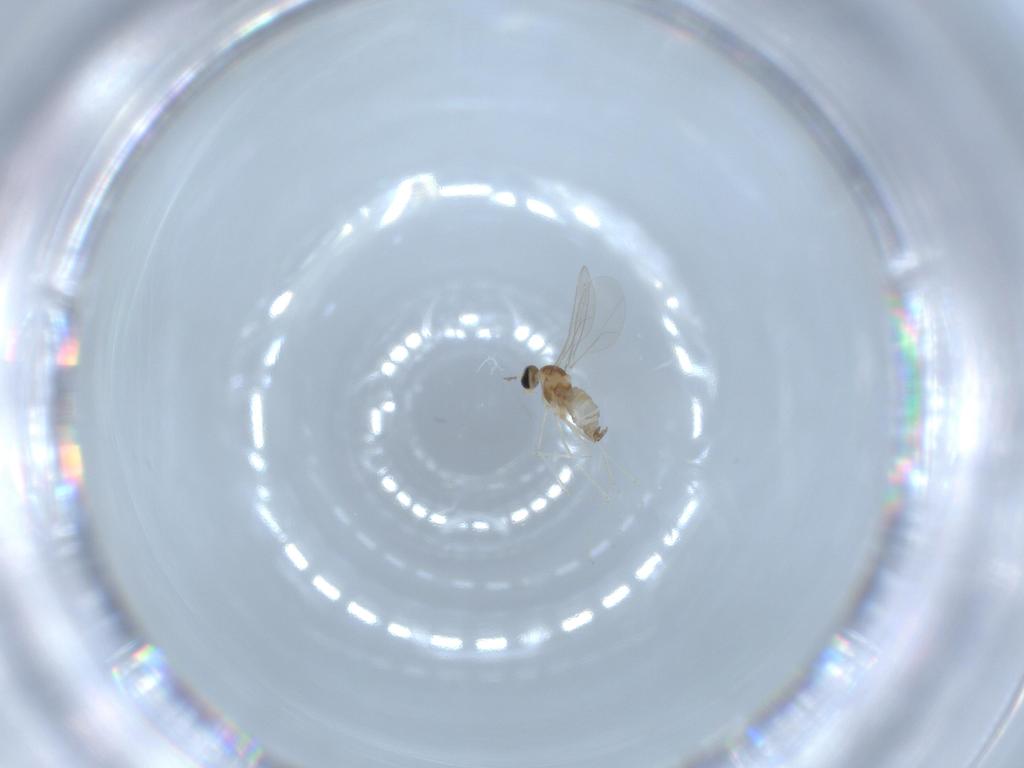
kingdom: Animalia
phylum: Arthropoda
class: Insecta
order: Diptera
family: Cecidomyiidae
